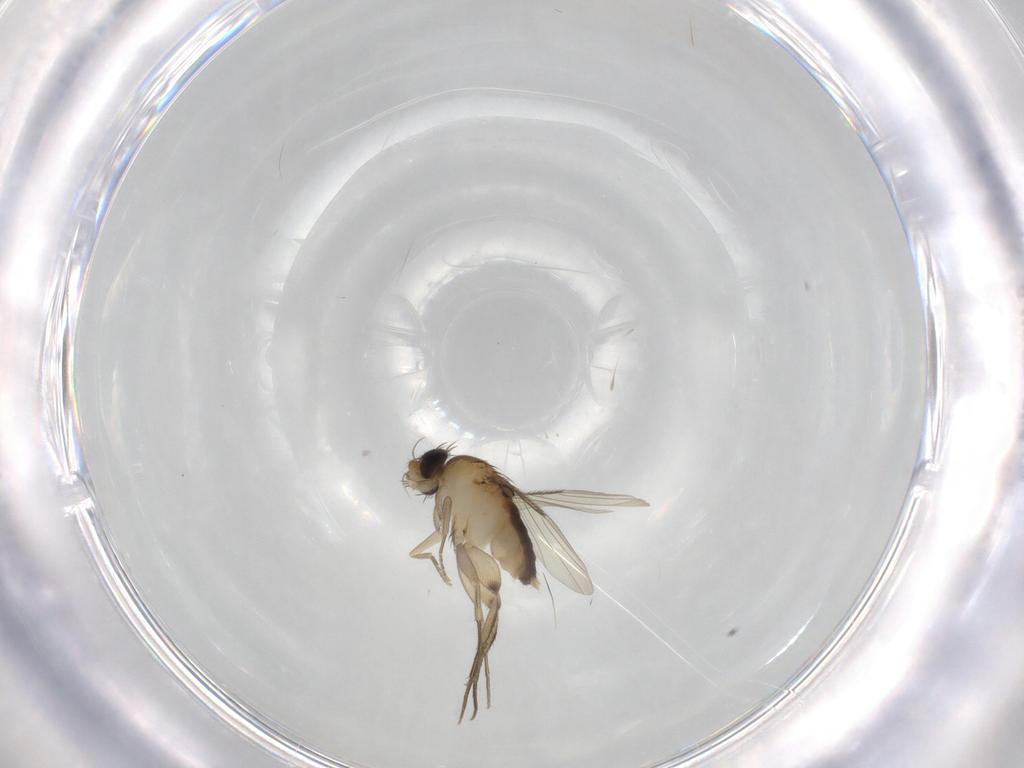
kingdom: Animalia
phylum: Arthropoda
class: Insecta
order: Diptera
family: Phoridae
